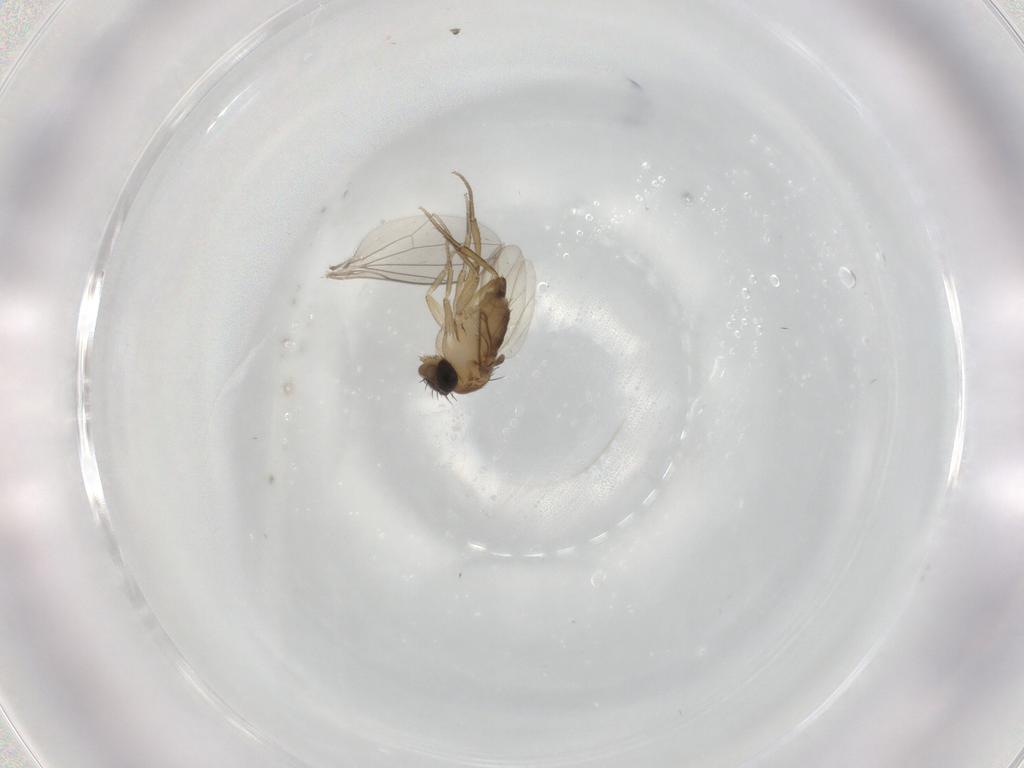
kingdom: Animalia
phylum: Arthropoda
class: Insecta
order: Diptera
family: Phoridae
